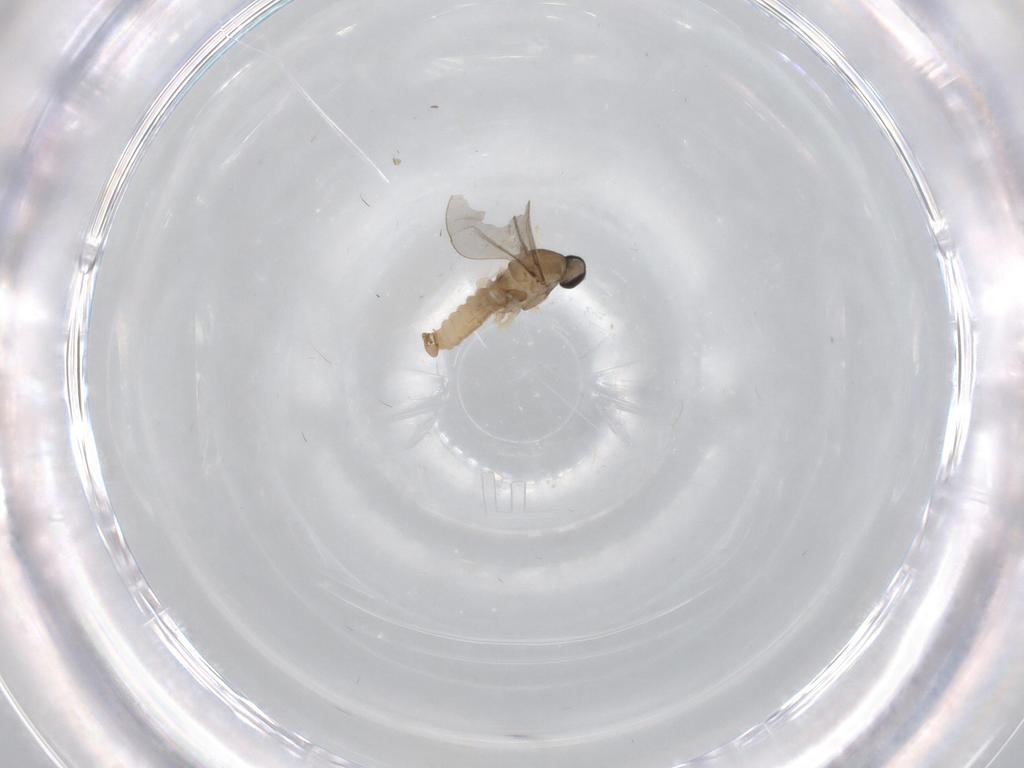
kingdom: Animalia
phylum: Arthropoda
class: Insecta
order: Diptera
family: Cecidomyiidae
